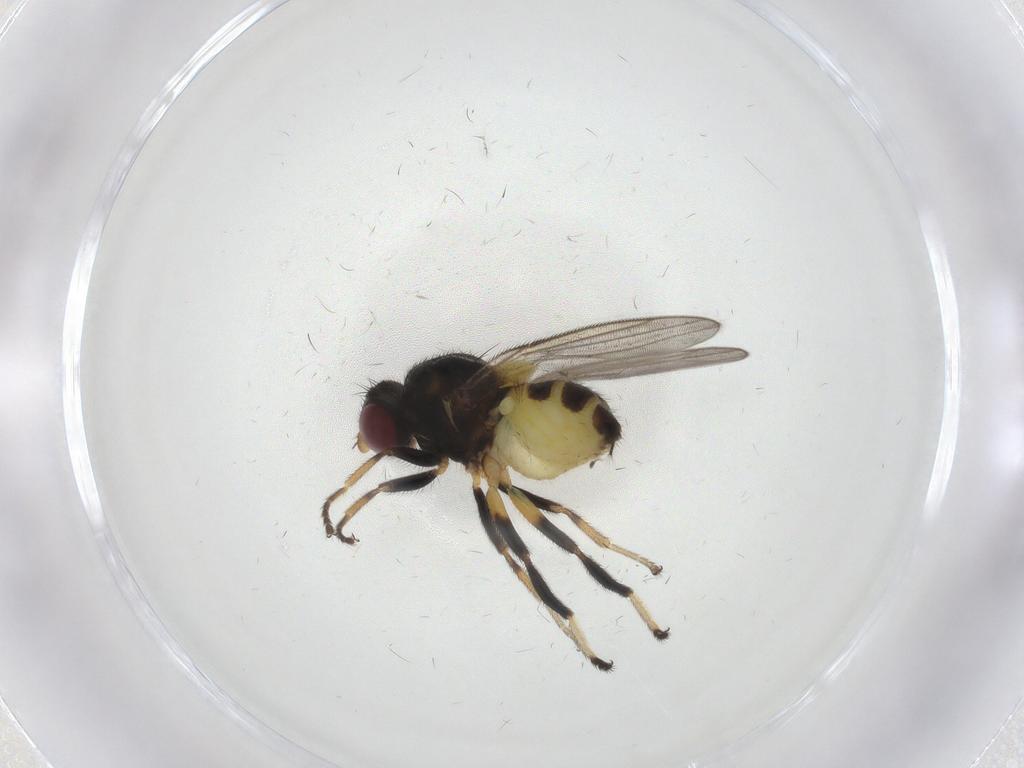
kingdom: Animalia
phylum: Arthropoda
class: Insecta
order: Diptera
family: Chloropidae
